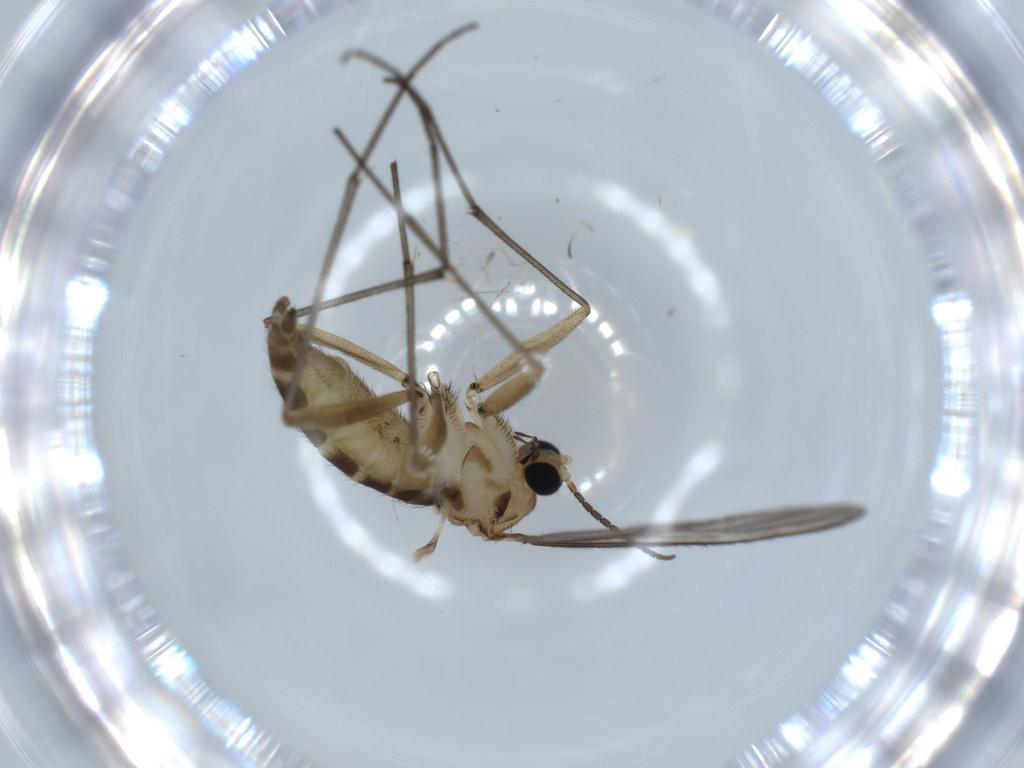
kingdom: Animalia
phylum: Arthropoda
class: Insecta
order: Diptera
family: Sciaridae
